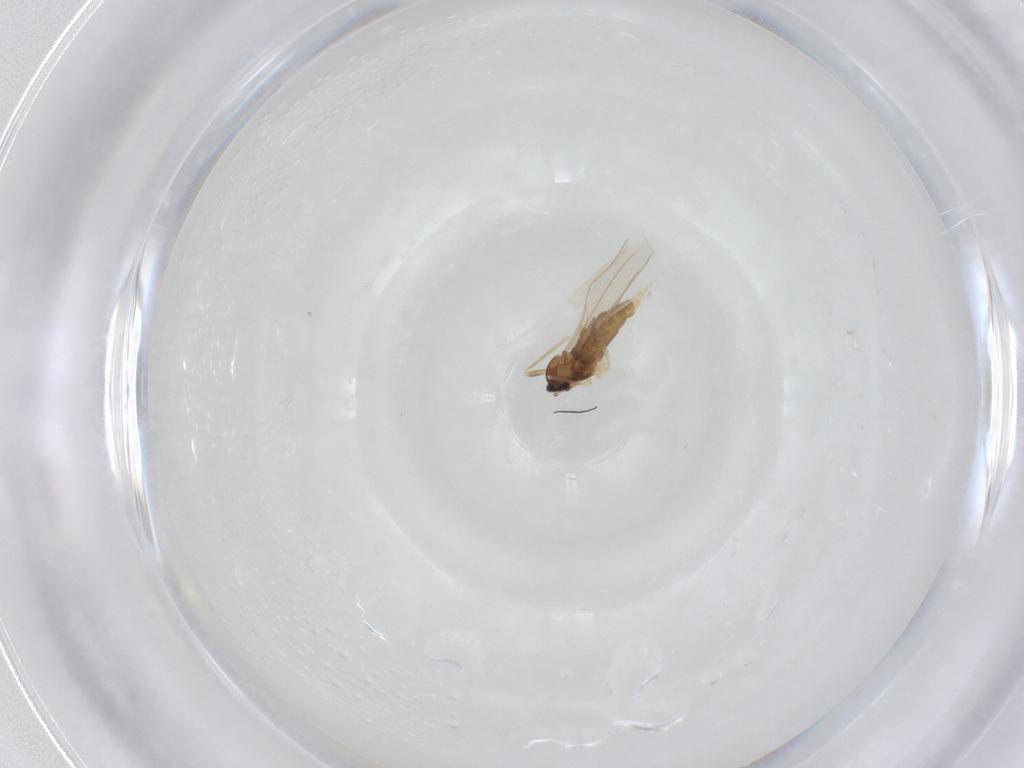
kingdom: Animalia
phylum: Arthropoda
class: Insecta
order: Diptera
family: Cecidomyiidae
